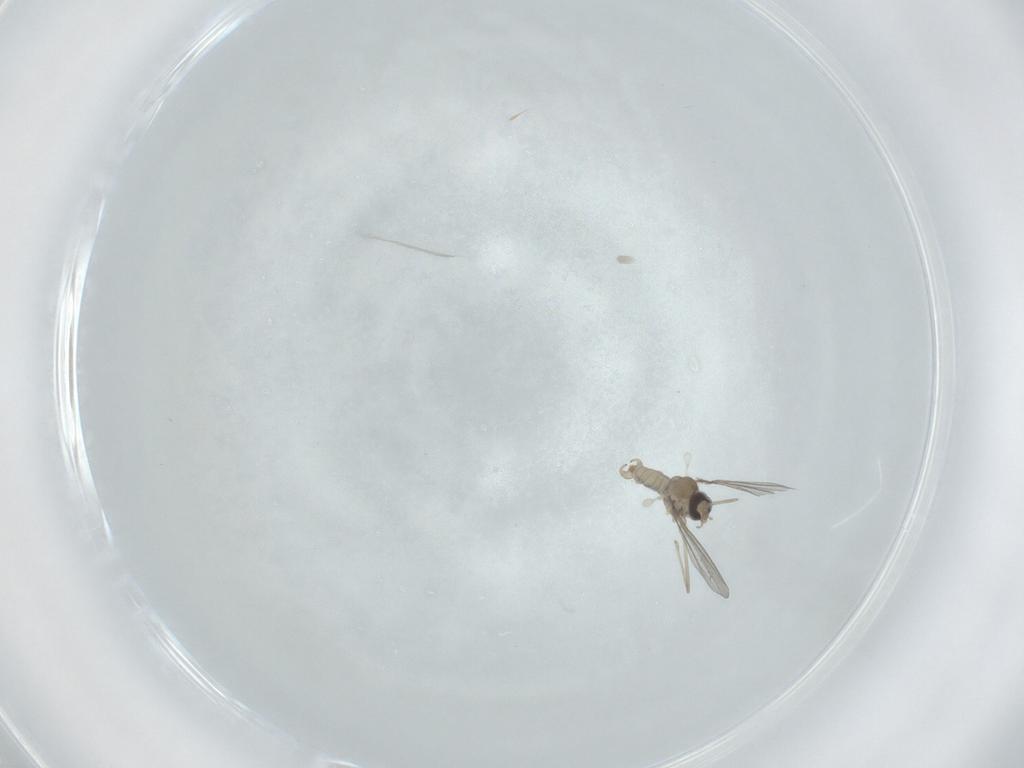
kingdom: Animalia
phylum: Arthropoda
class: Insecta
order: Diptera
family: Cecidomyiidae
